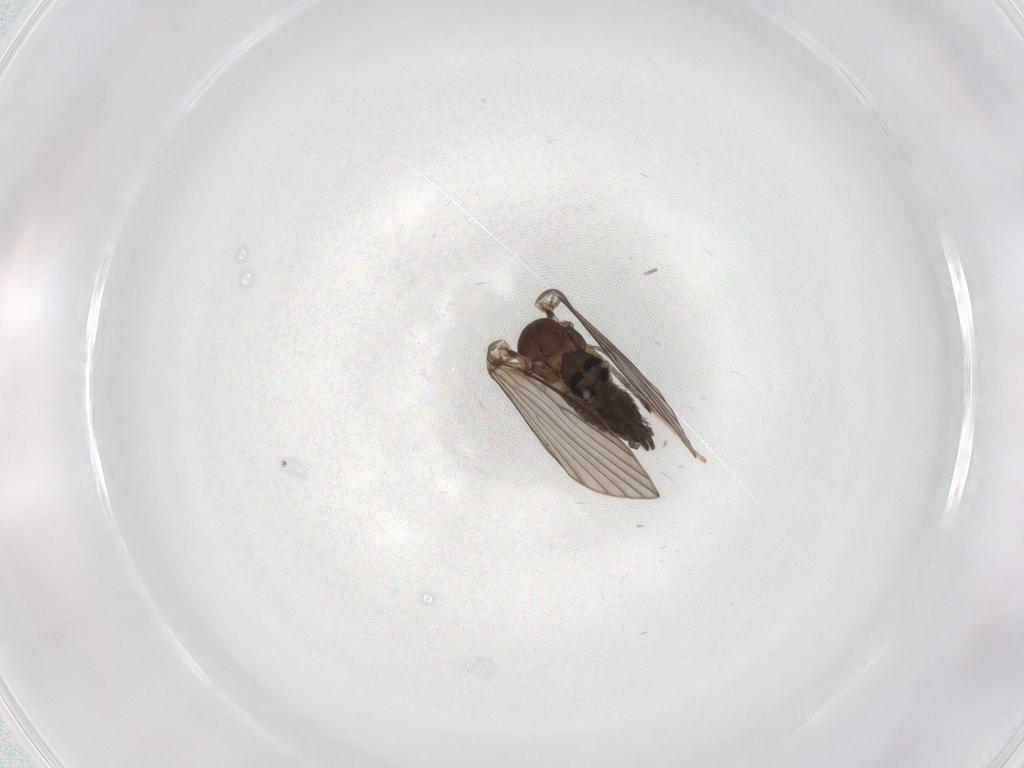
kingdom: Animalia
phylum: Arthropoda
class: Insecta
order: Diptera
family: Psychodidae
